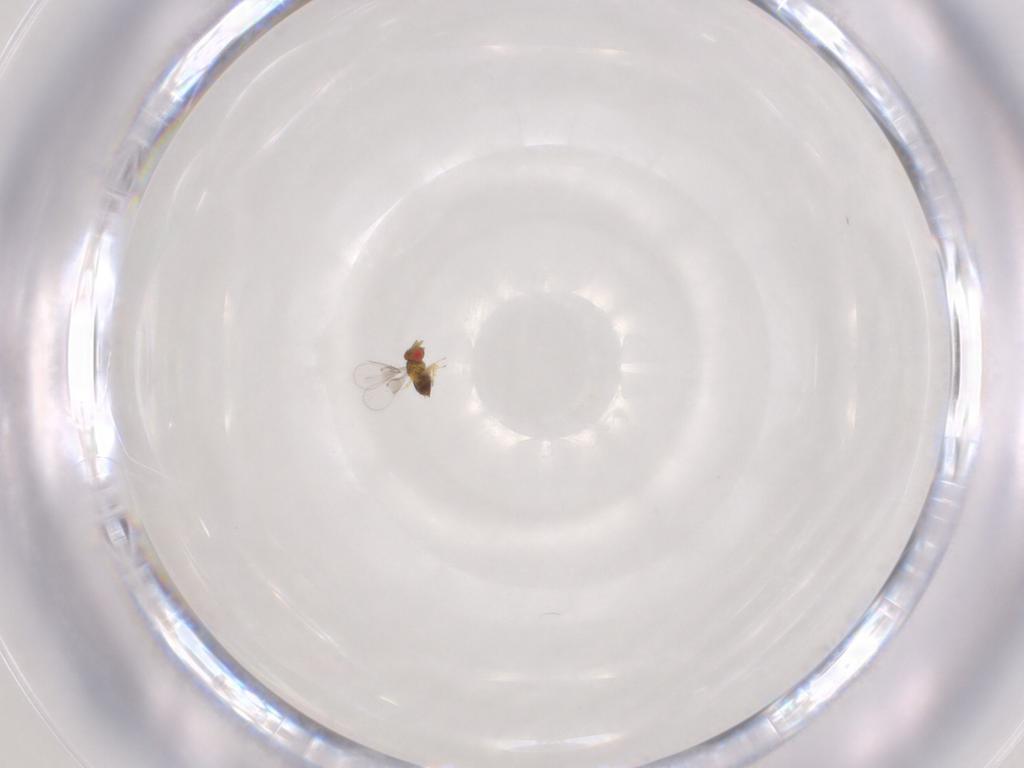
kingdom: Animalia
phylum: Arthropoda
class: Insecta
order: Hymenoptera
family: Trichogrammatidae
